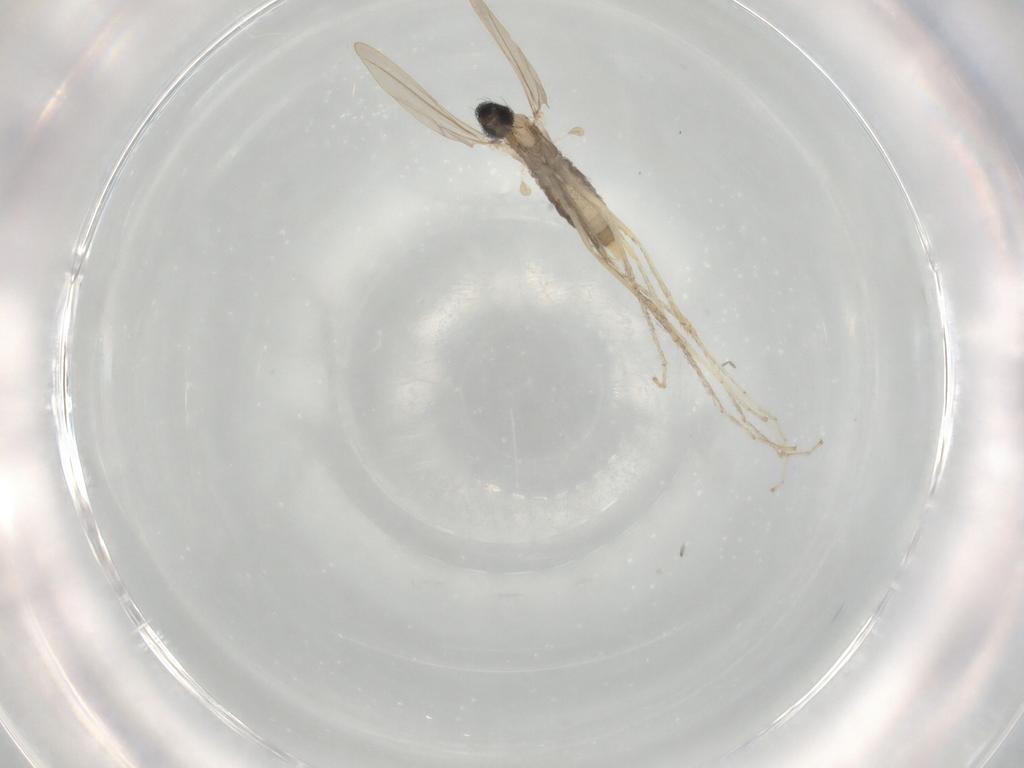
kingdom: Animalia
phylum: Arthropoda
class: Insecta
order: Diptera
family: Cecidomyiidae
